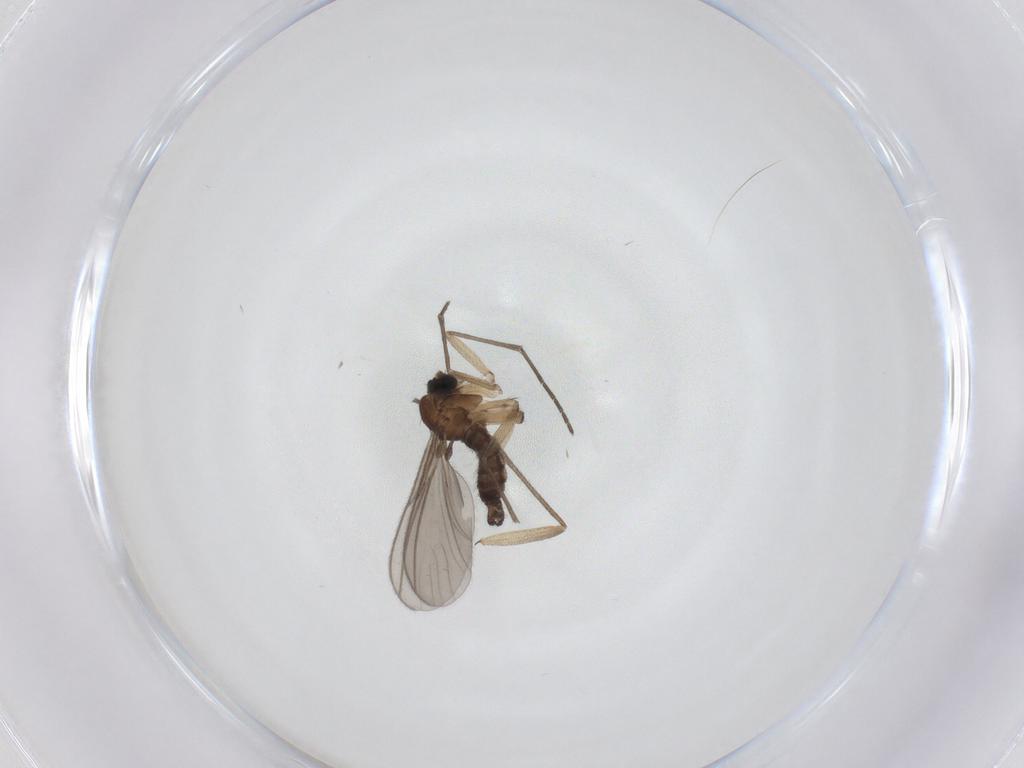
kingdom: Animalia
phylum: Arthropoda
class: Insecta
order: Diptera
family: Sciaridae
